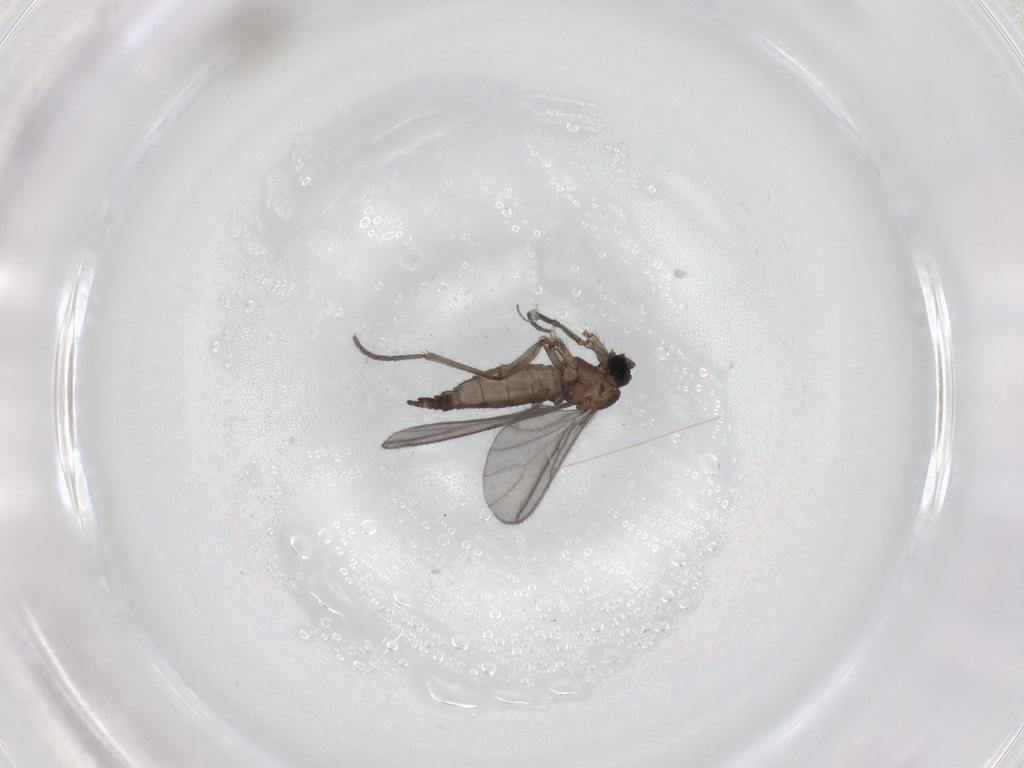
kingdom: Animalia
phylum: Arthropoda
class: Insecta
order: Diptera
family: Sciaridae
